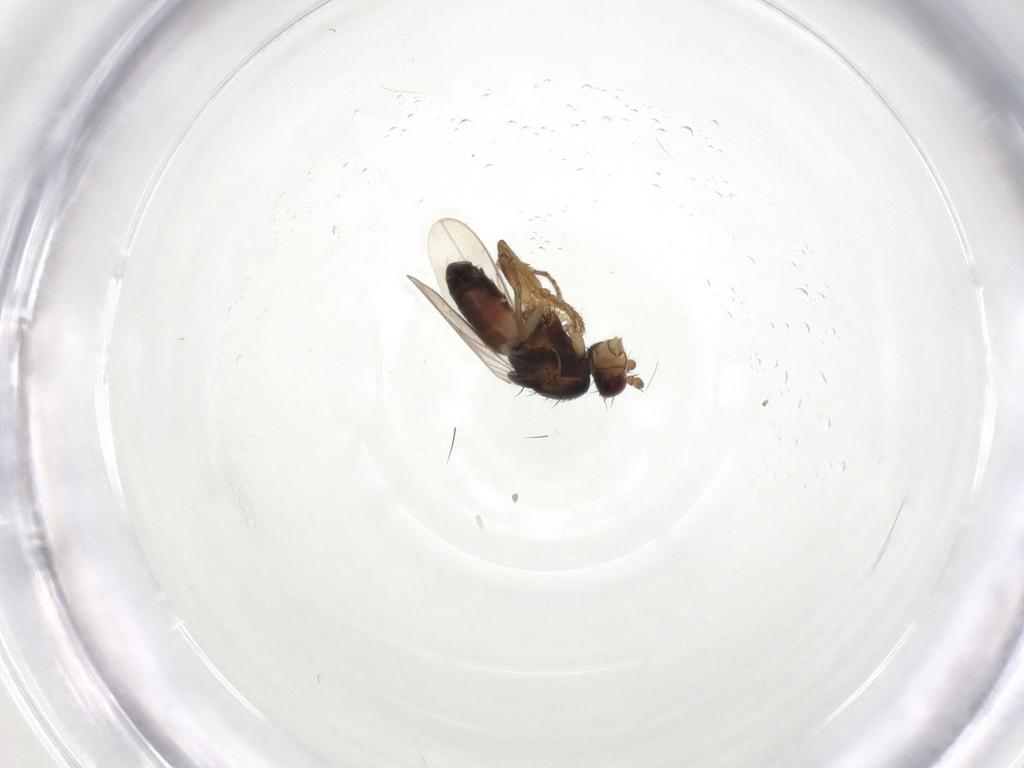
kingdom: Animalia
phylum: Arthropoda
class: Insecta
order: Diptera
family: Sphaeroceridae
